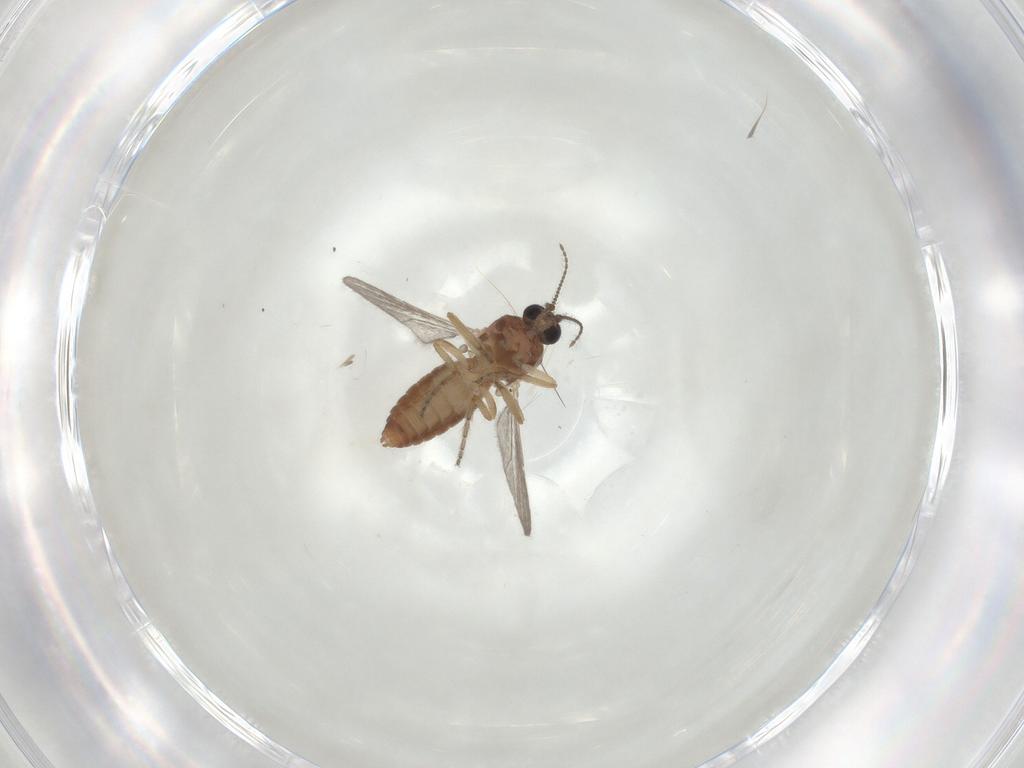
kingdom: Animalia
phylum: Arthropoda
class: Insecta
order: Diptera
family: Ceratopogonidae
